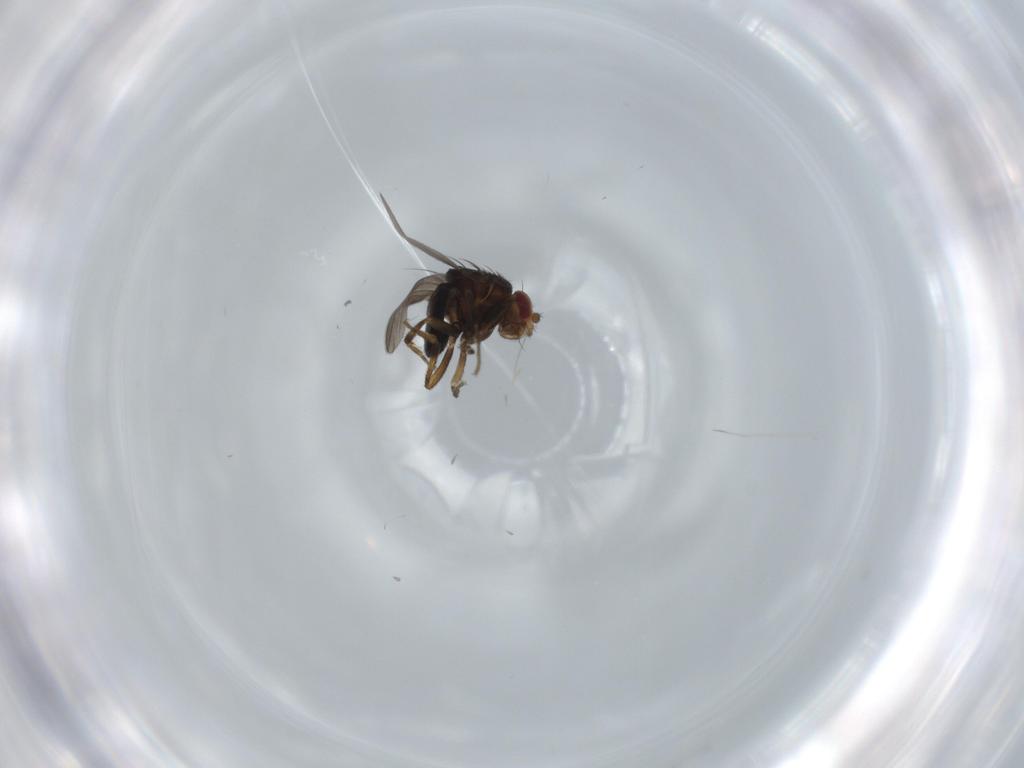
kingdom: Animalia
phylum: Arthropoda
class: Insecta
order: Diptera
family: Sphaeroceridae
